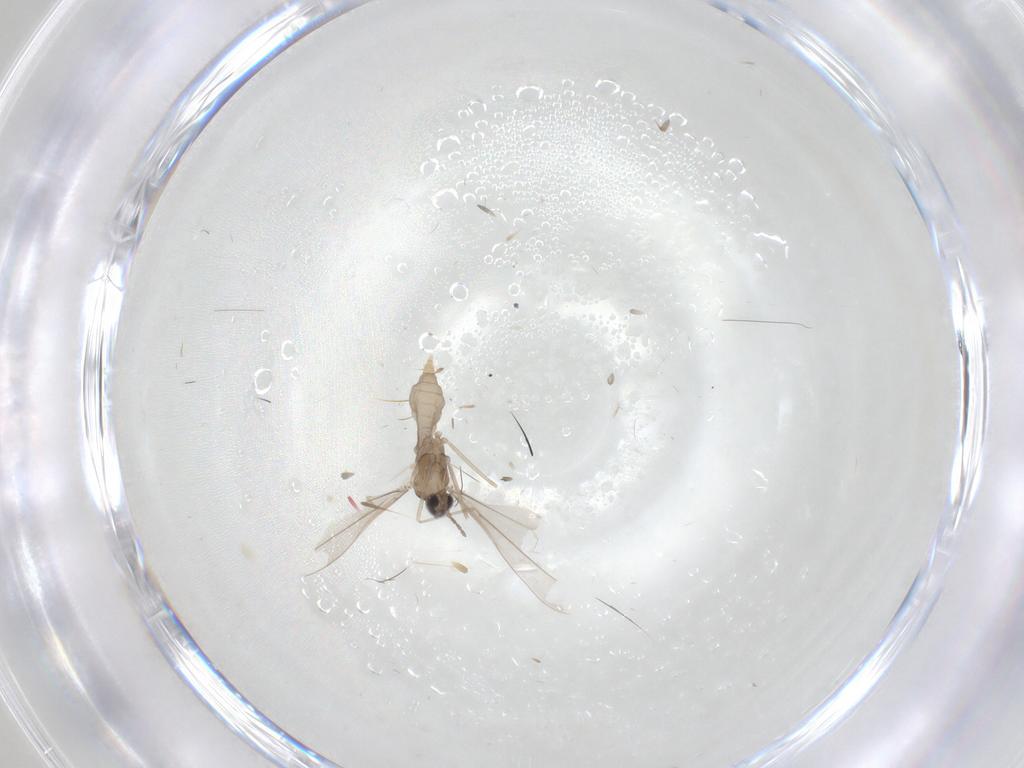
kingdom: Animalia
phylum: Arthropoda
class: Insecta
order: Diptera
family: Cecidomyiidae
